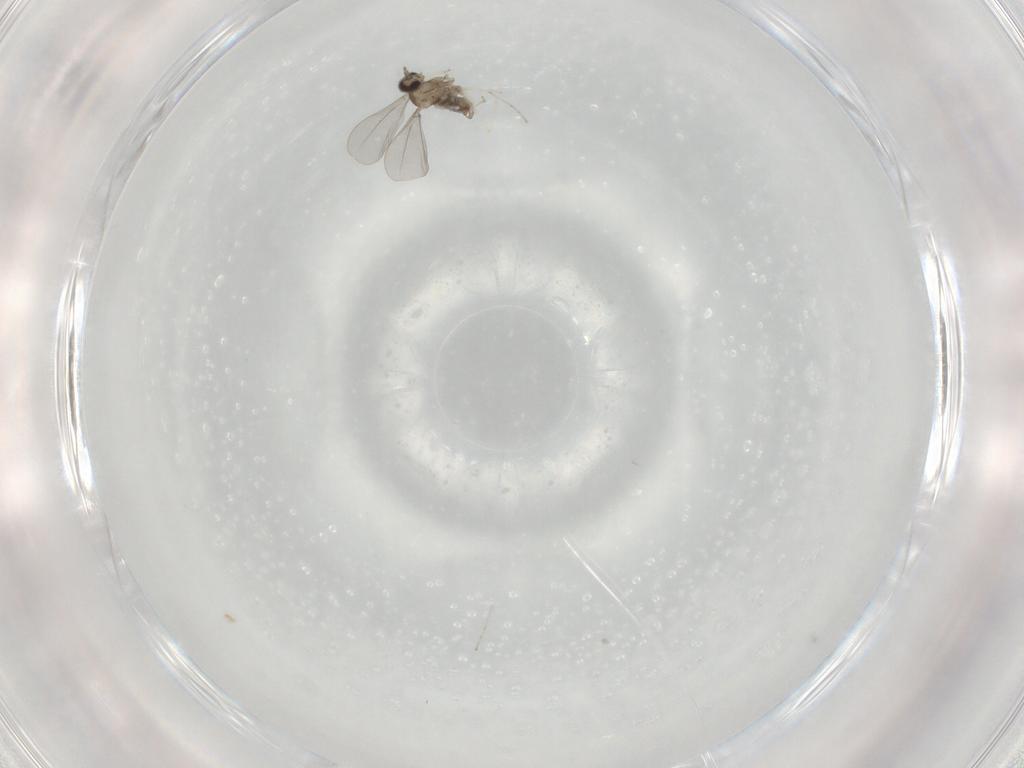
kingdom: Animalia
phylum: Arthropoda
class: Insecta
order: Diptera
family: Cecidomyiidae
